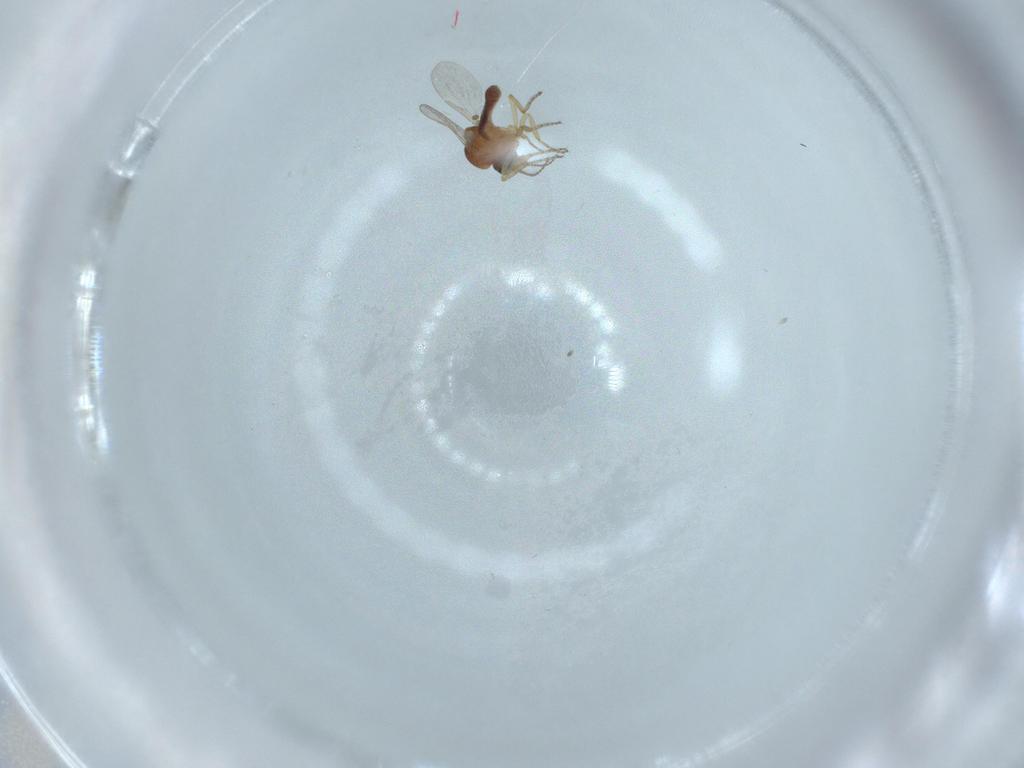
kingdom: Animalia
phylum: Arthropoda
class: Insecta
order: Diptera
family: Ceratopogonidae
